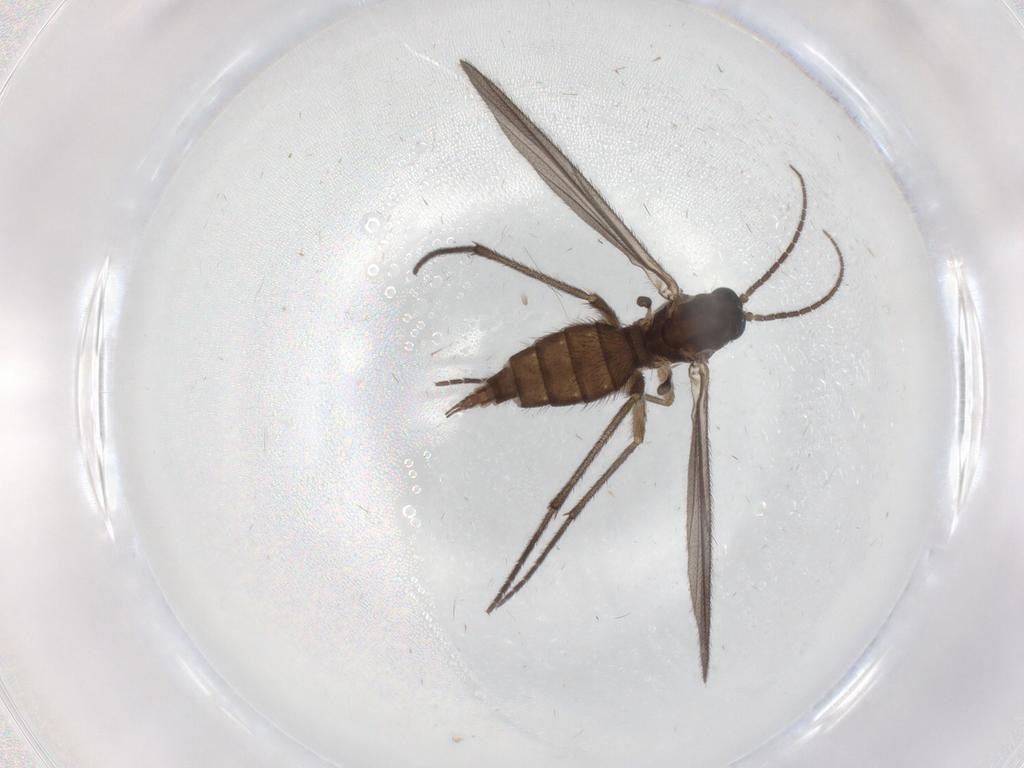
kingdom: Animalia
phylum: Arthropoda
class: Insecta
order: Diptera
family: Sciaridae
